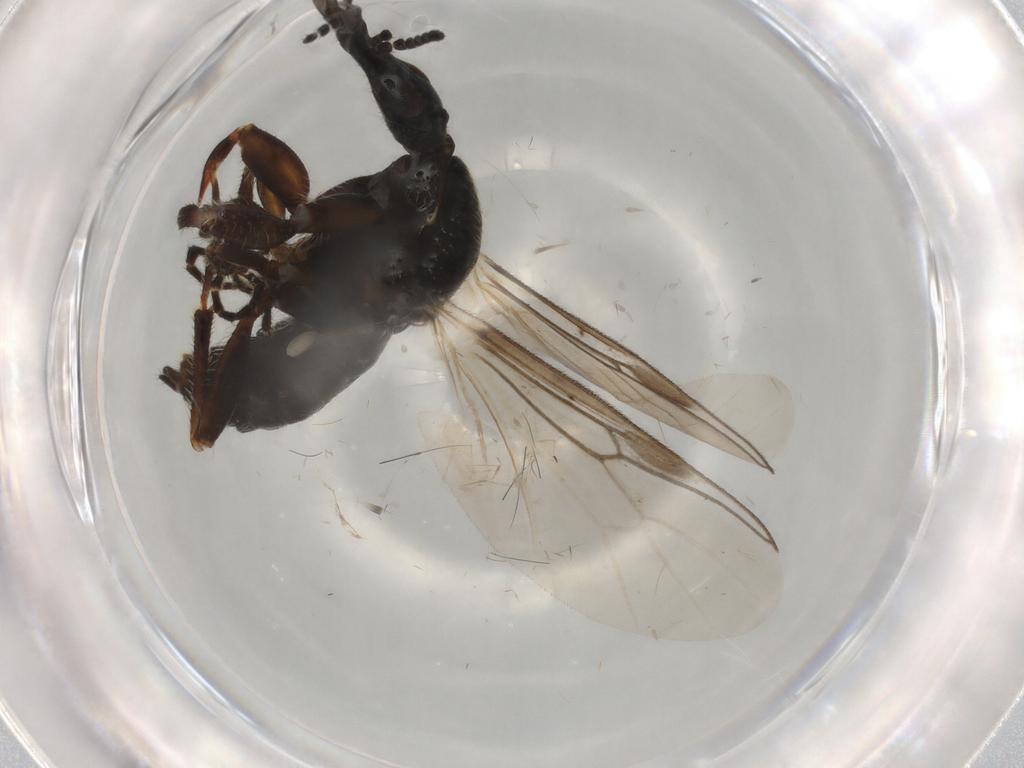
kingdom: Animalia
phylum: Arthropoda
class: Insecta
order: Diptera
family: Bibionidae
